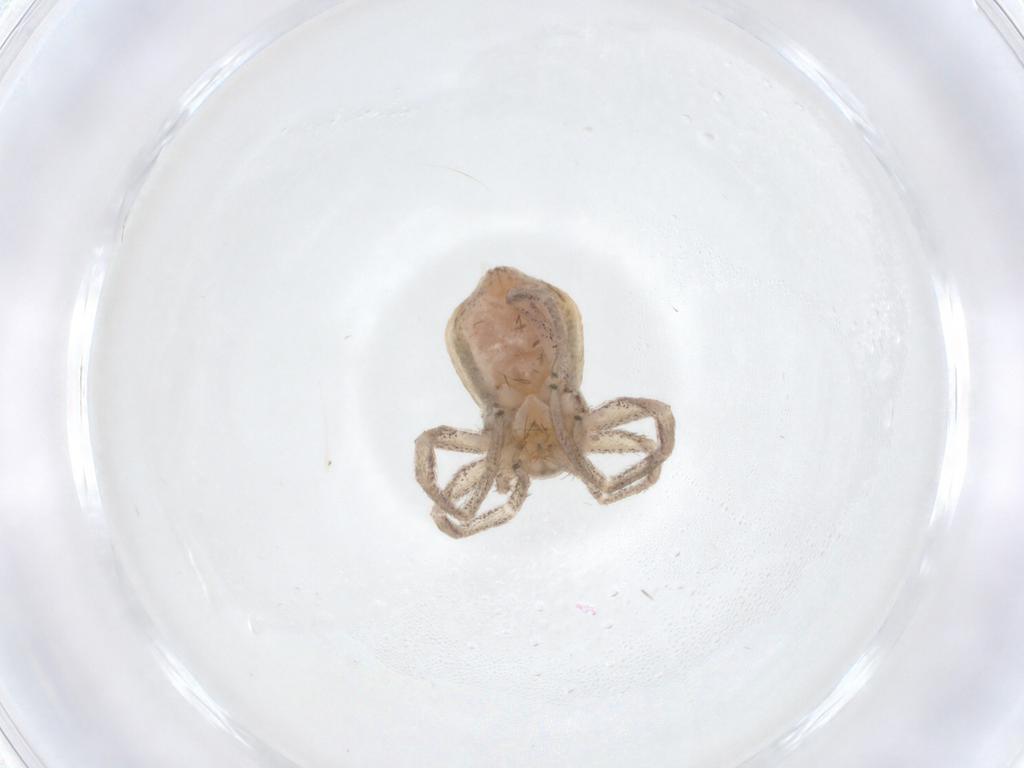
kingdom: Animalia
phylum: Arthropoda
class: Arachnida
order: Araneae
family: Philodromidae
